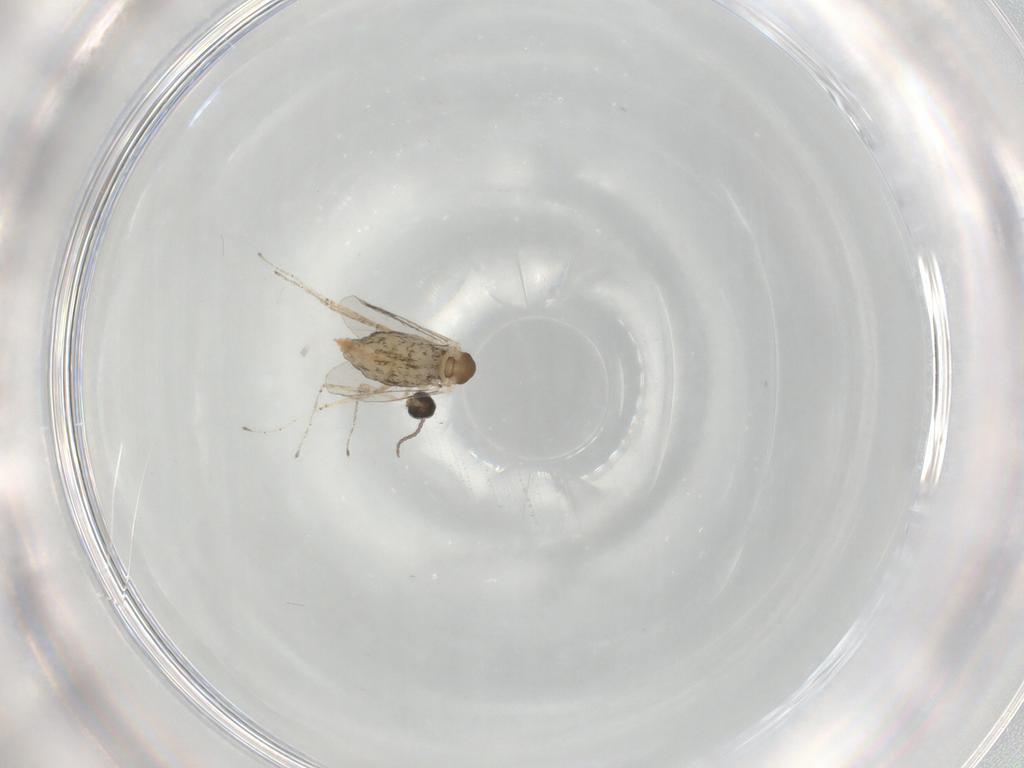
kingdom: Animalia
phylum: Arthropoda
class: Insecta
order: Diptera
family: Cecidomyiidae
